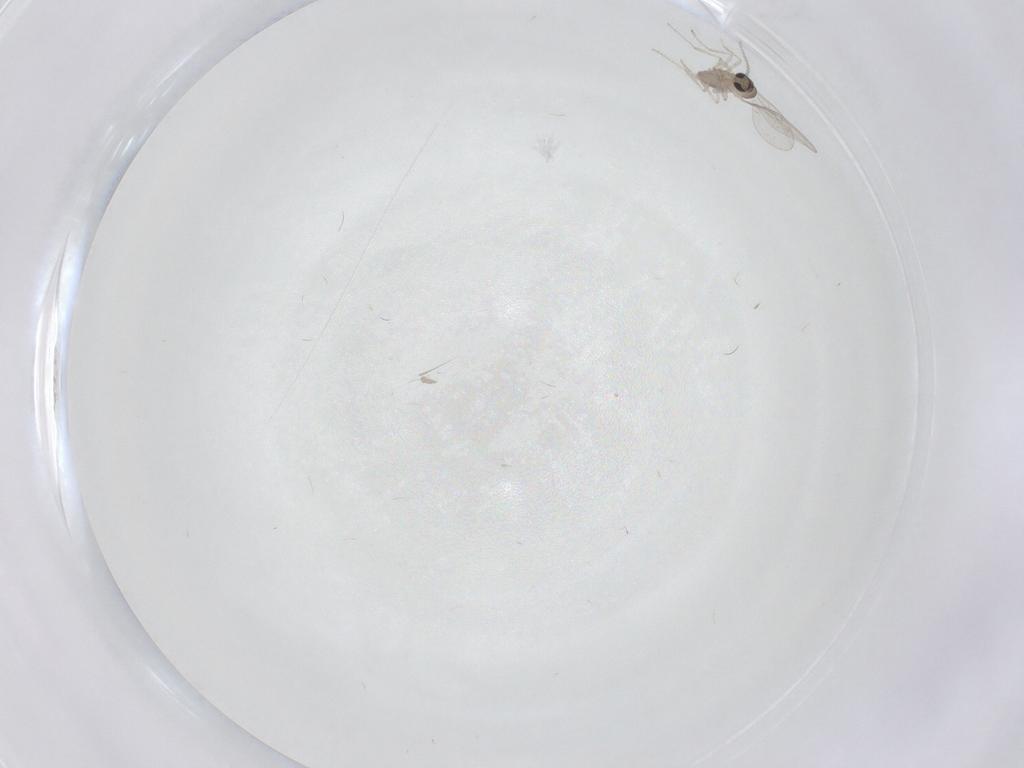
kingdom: Animalia
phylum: Arthropoda
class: Insecta
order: Diptera
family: Cecidomyiidae
